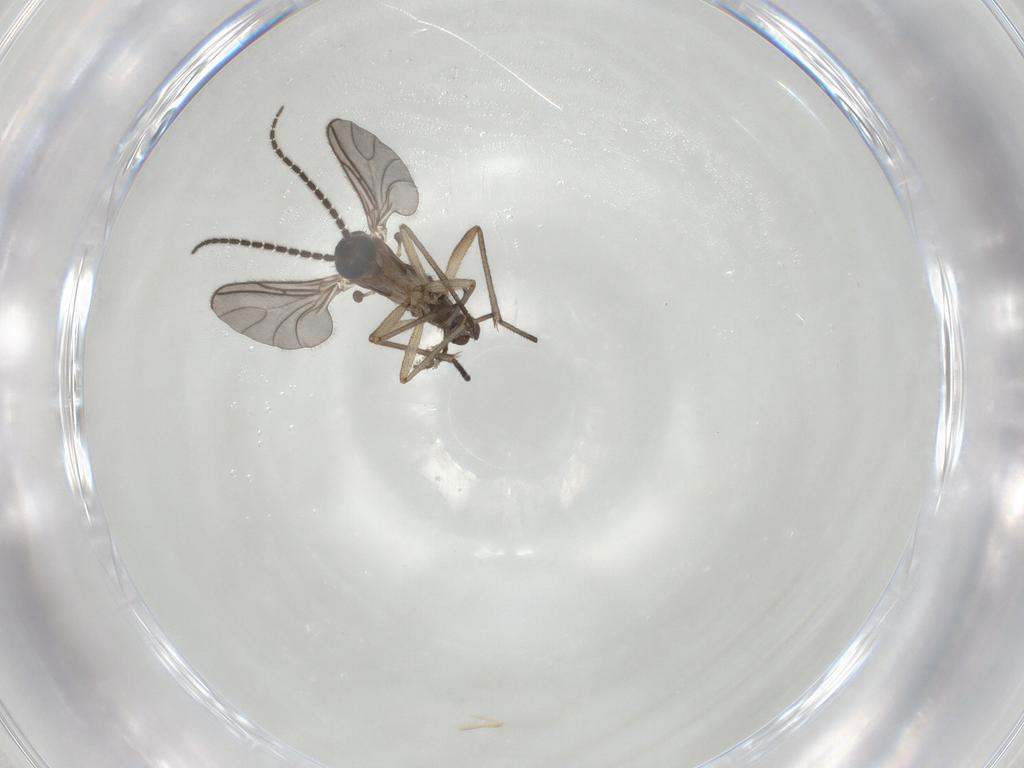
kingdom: Animalia
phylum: Arthropoda
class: Insecta
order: Diptera
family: Sciaridae
